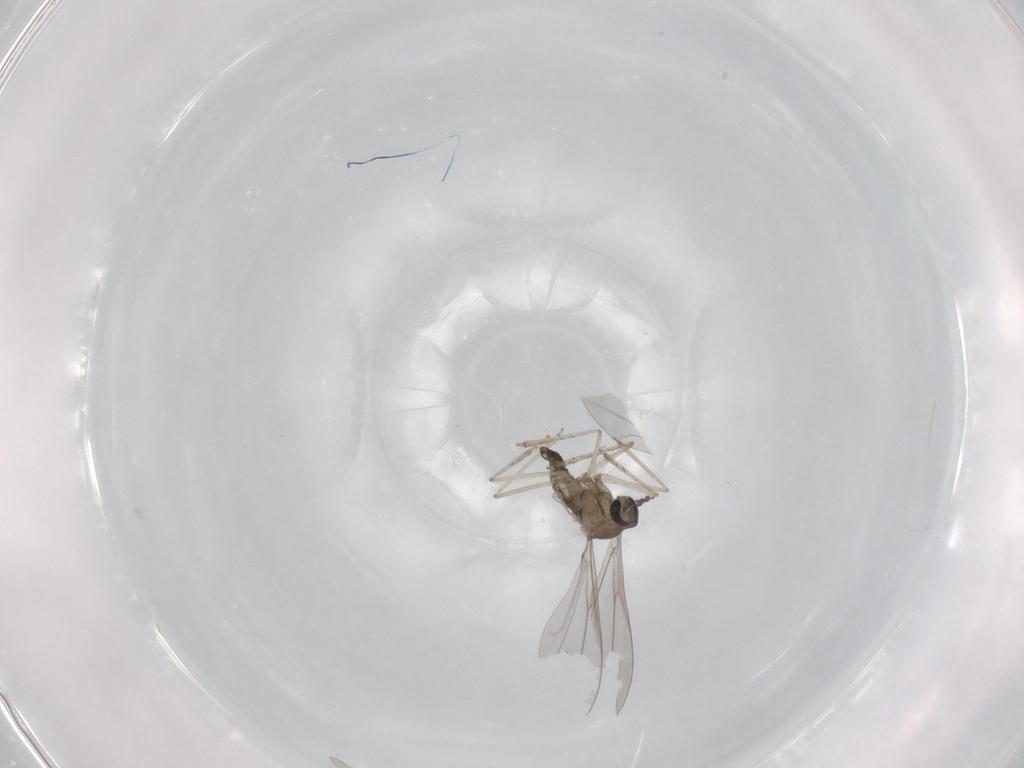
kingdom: Animalia
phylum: Arthropoda
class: Insecta
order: Diptera
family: Cecidomyiidae
